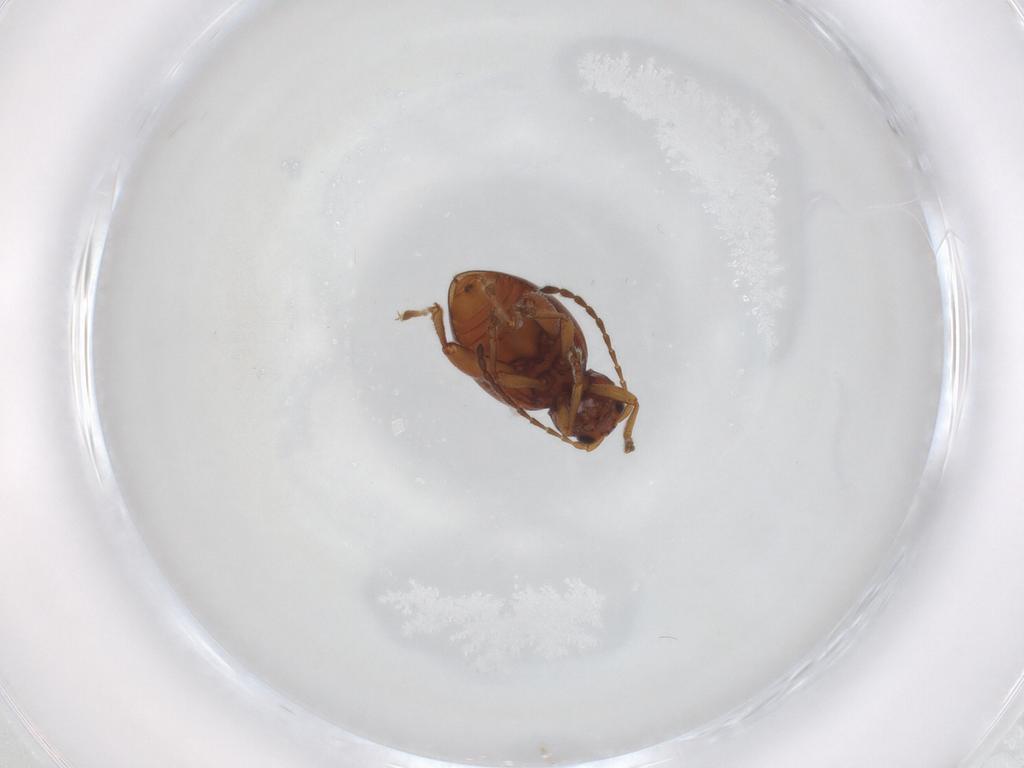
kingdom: Animalia
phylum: Arthropoda
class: Insecta
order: Coleoptera
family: Chrysomelidae
